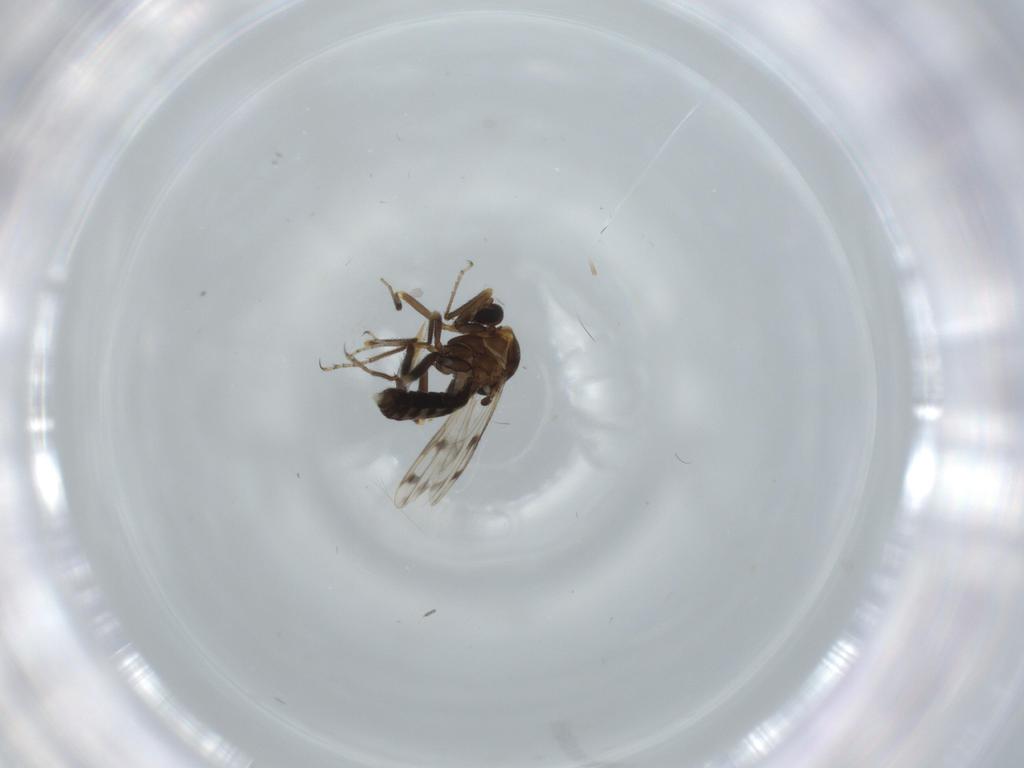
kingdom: Animalia
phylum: Arthropoda
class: Insecta
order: Diptera
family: Ceratopogonidae
